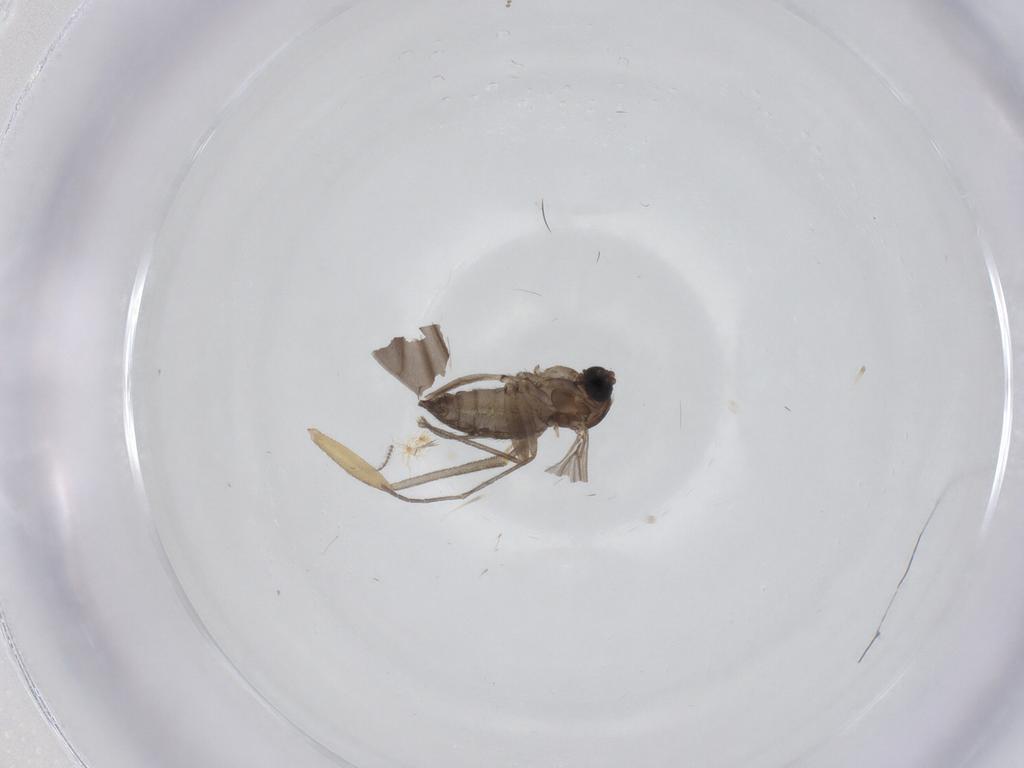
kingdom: Animalia
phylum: Arthropoda
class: Insecta
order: Diptera
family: Sciaridae
